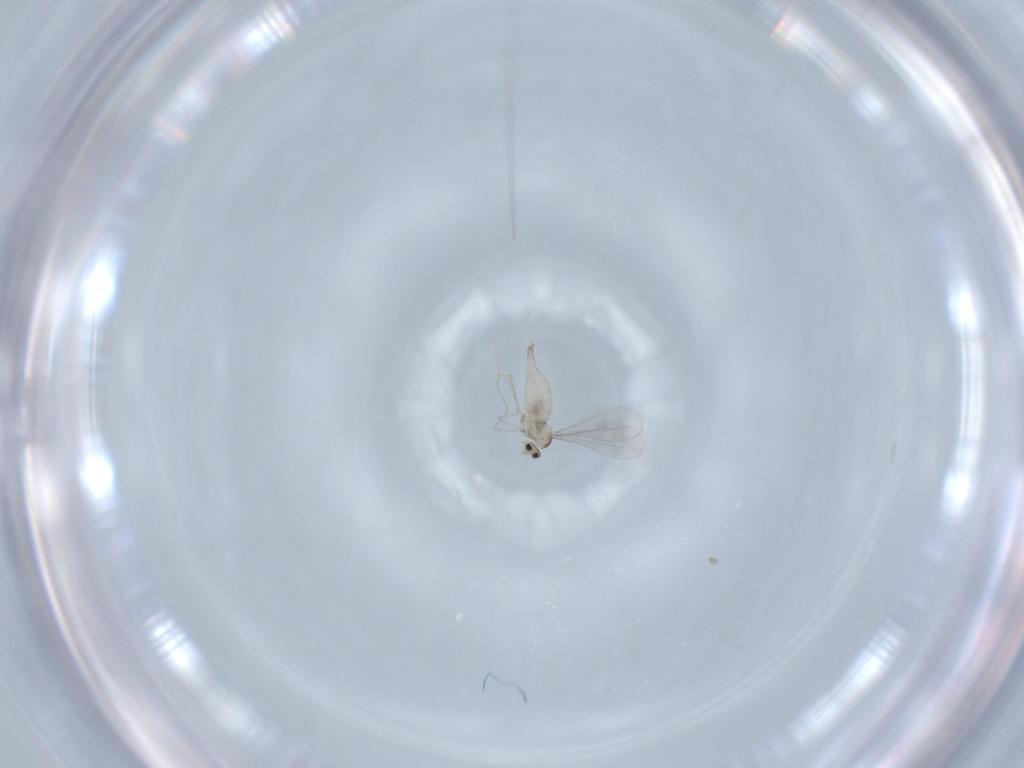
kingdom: Animalia
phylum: Arthropoda
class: Insecta
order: Diptera
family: Cecidomyiidae
